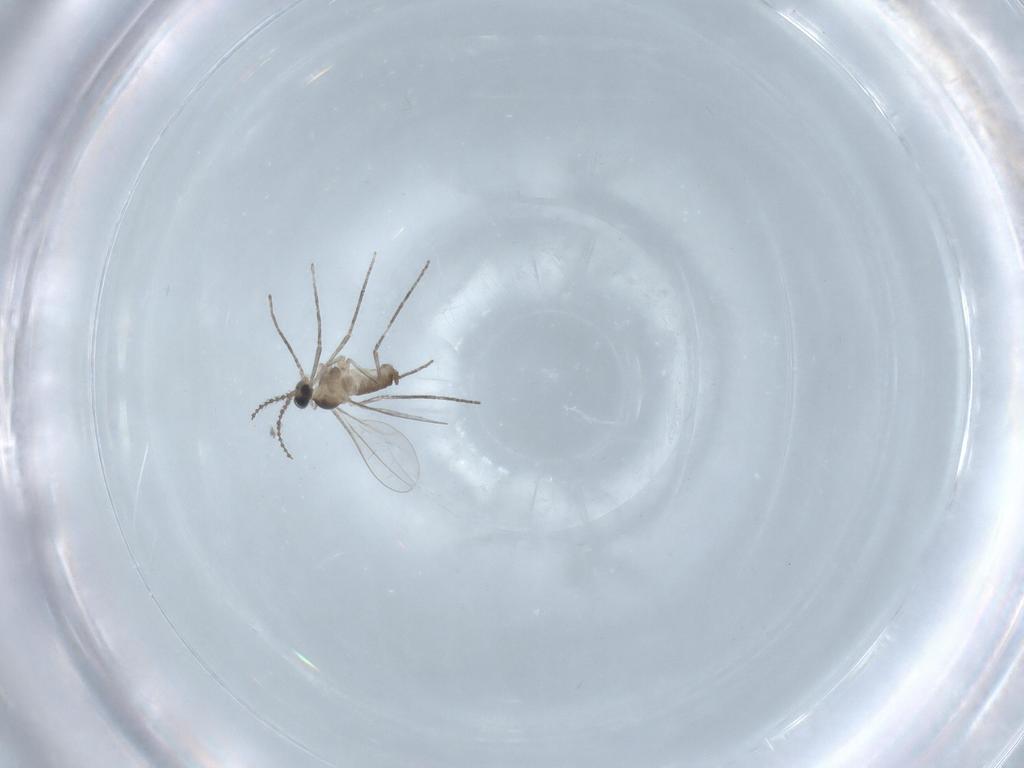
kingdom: Animalia
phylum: Arthropoda
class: Insecta
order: Diptera
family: Cecidomyiidae
